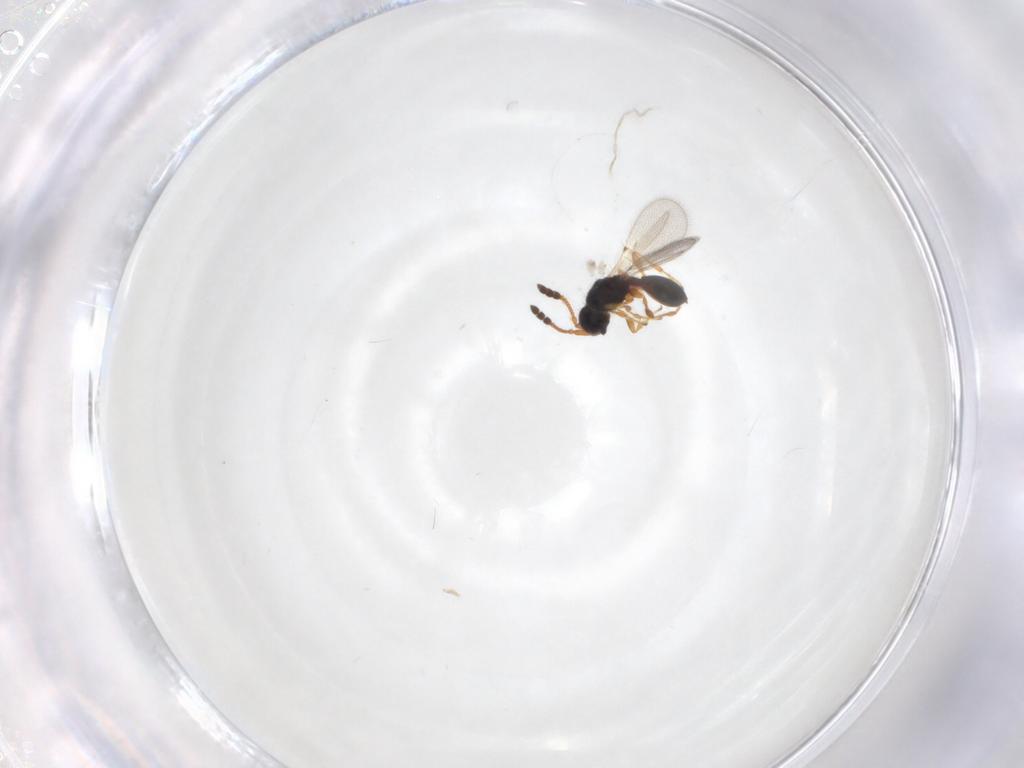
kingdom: Animalia
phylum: Arthropoda
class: Insecta
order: Hymenoptera
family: Diapriidae
